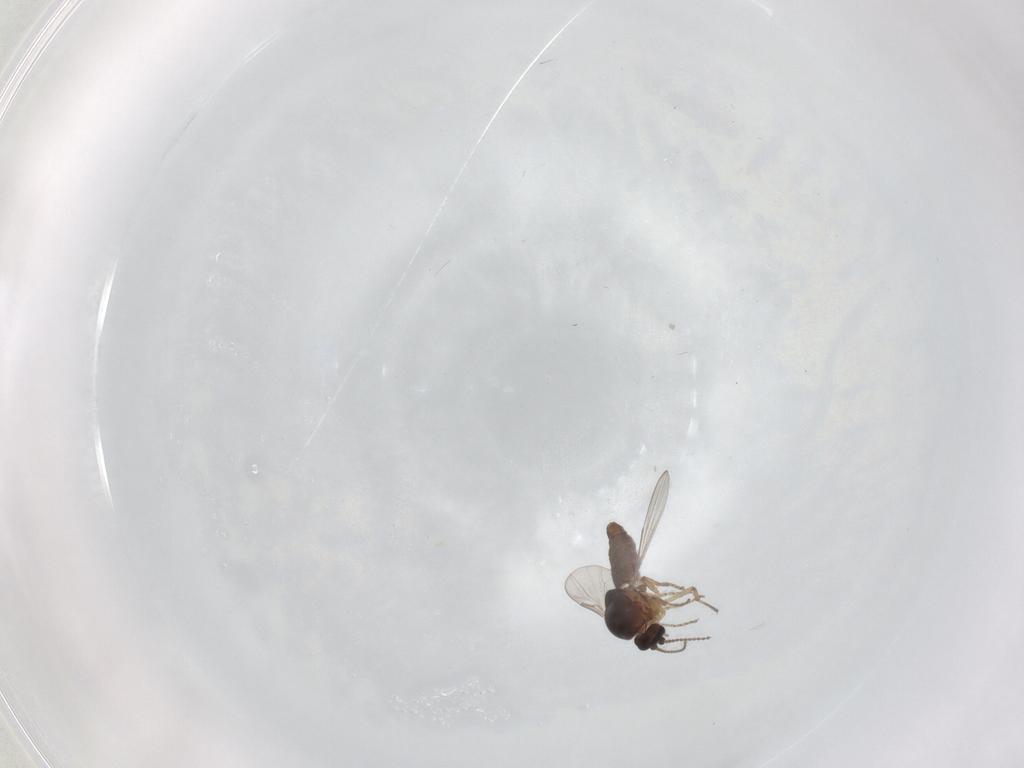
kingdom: Animalia
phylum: Arthropoda
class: Insecta
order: Diptera
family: Ceratopogonidae
